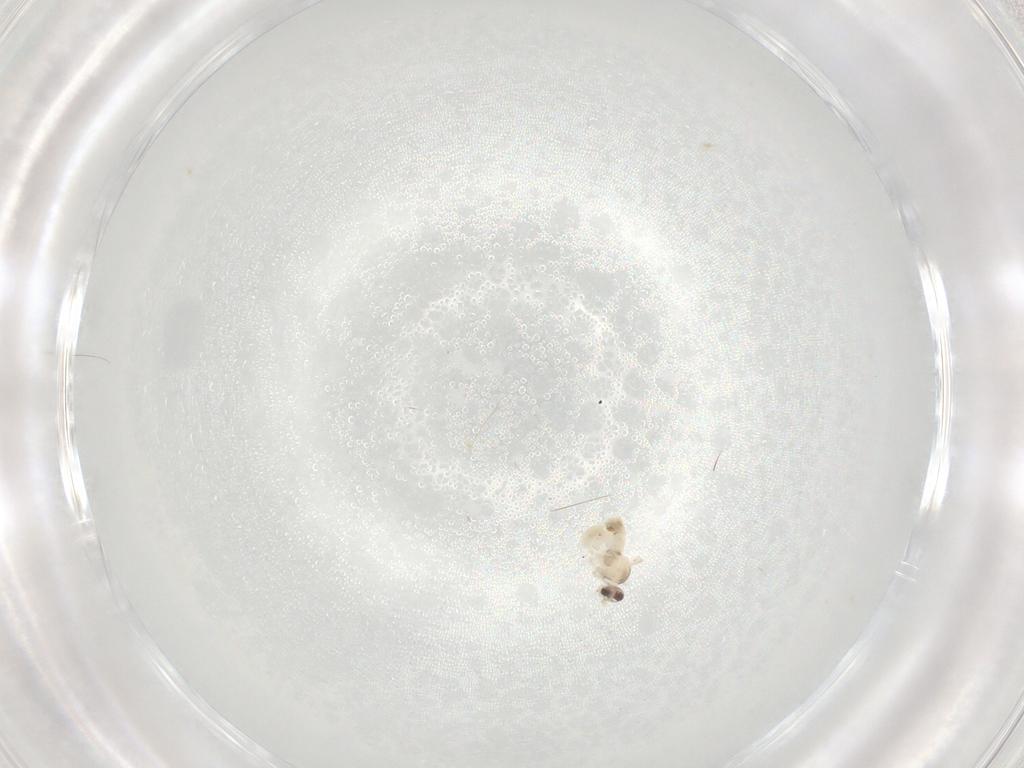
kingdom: Animalia
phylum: Arthropoda
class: Insecta
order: Diptera
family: Cecidomyiidae
